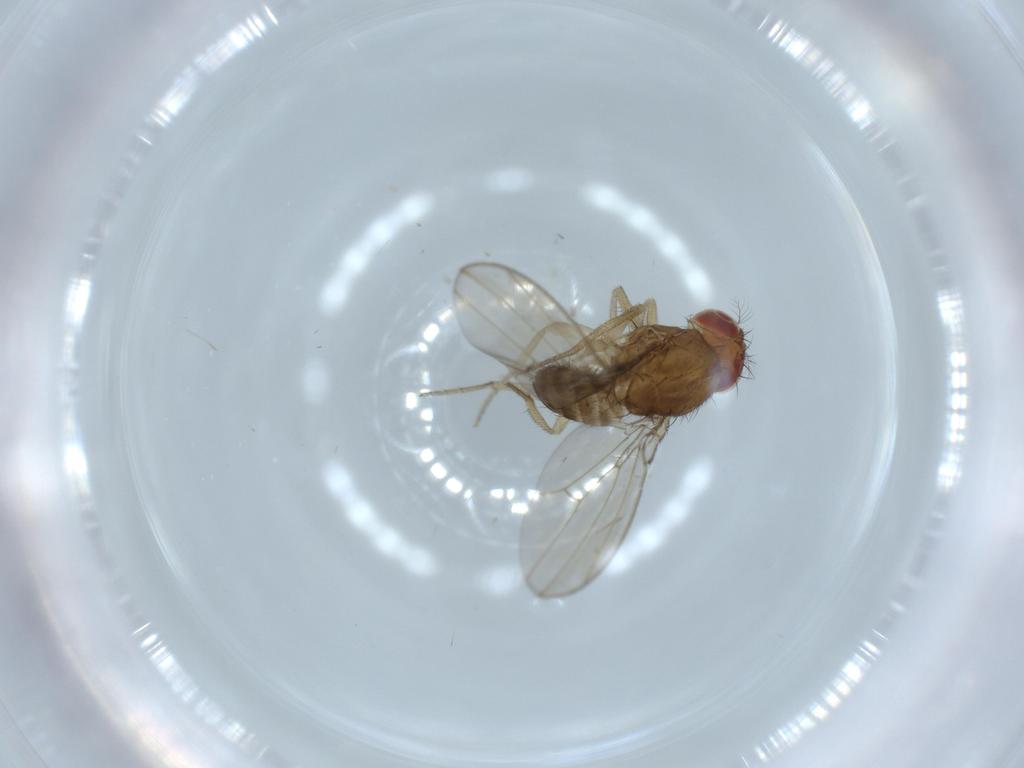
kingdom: Animalia
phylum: Arthropoda
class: Insecta
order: Diptera
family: Drosophilidae
